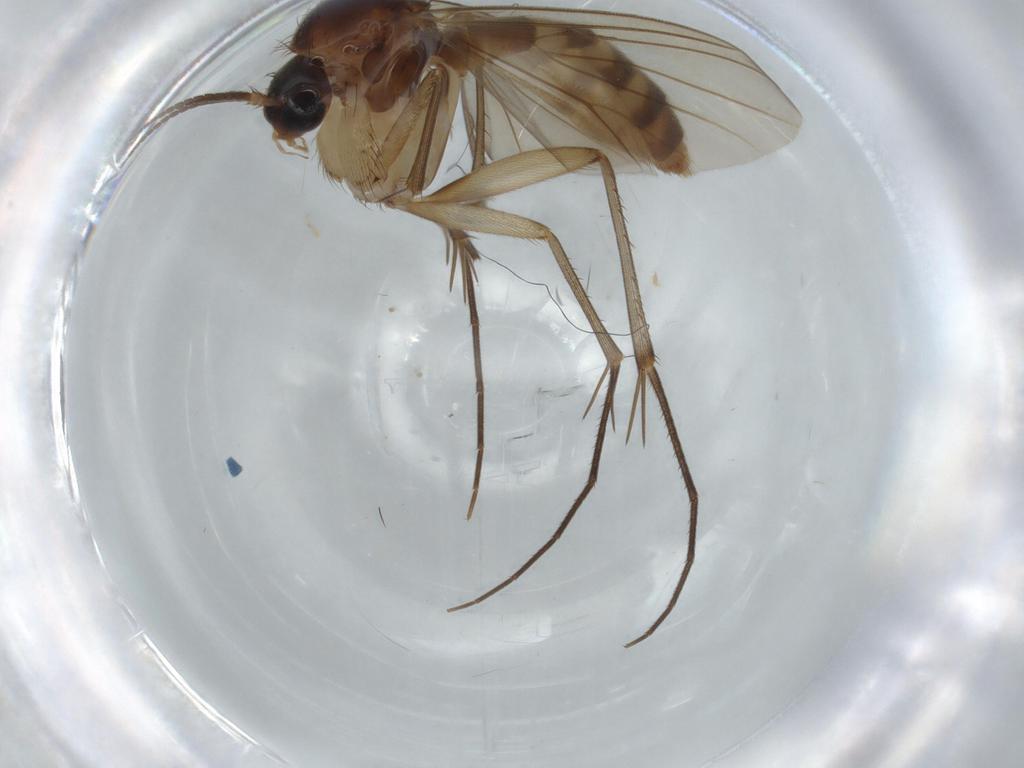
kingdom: Animalia
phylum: Arthropoda
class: Insecta
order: Diptera
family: Mycetophilidae
